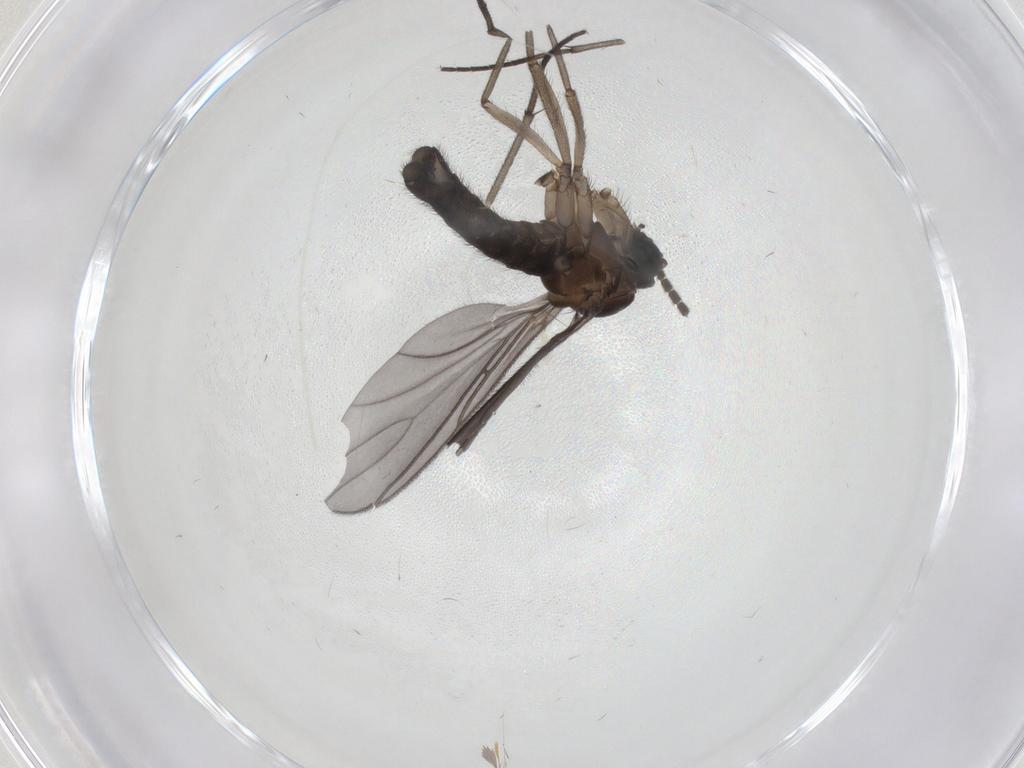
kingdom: Animalia
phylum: Arthropoda
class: Insecta
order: Diptera
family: Sciaridae
